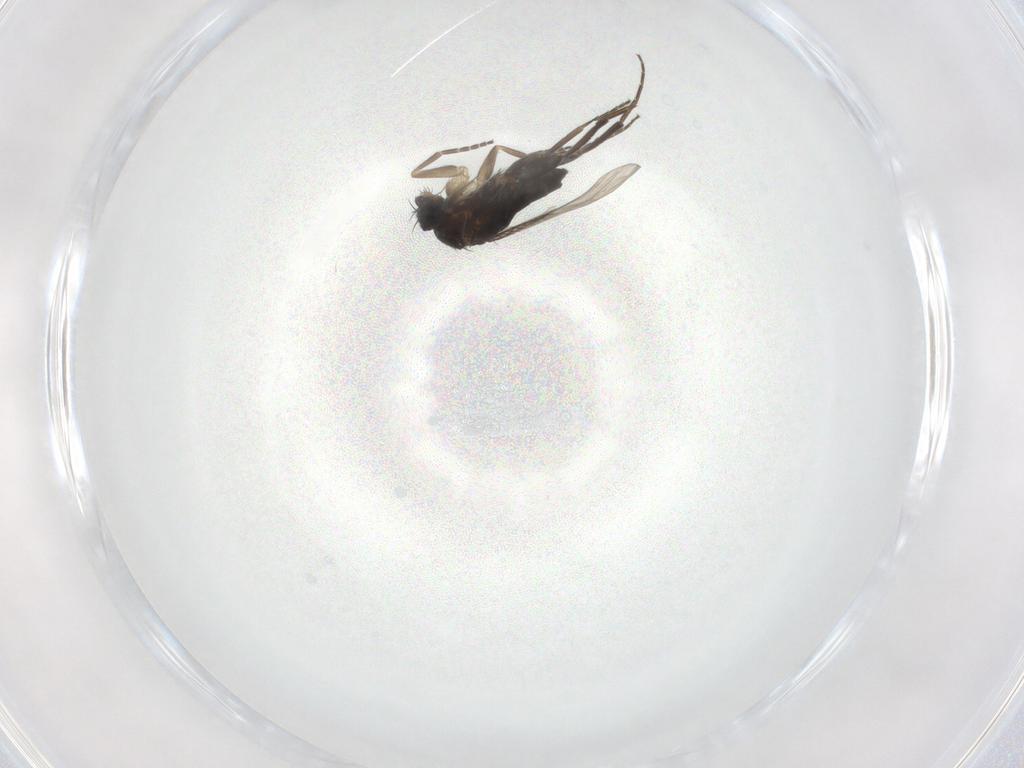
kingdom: Animalia
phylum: Arthropoda
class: Insecta
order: Diptera
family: Phoridae
